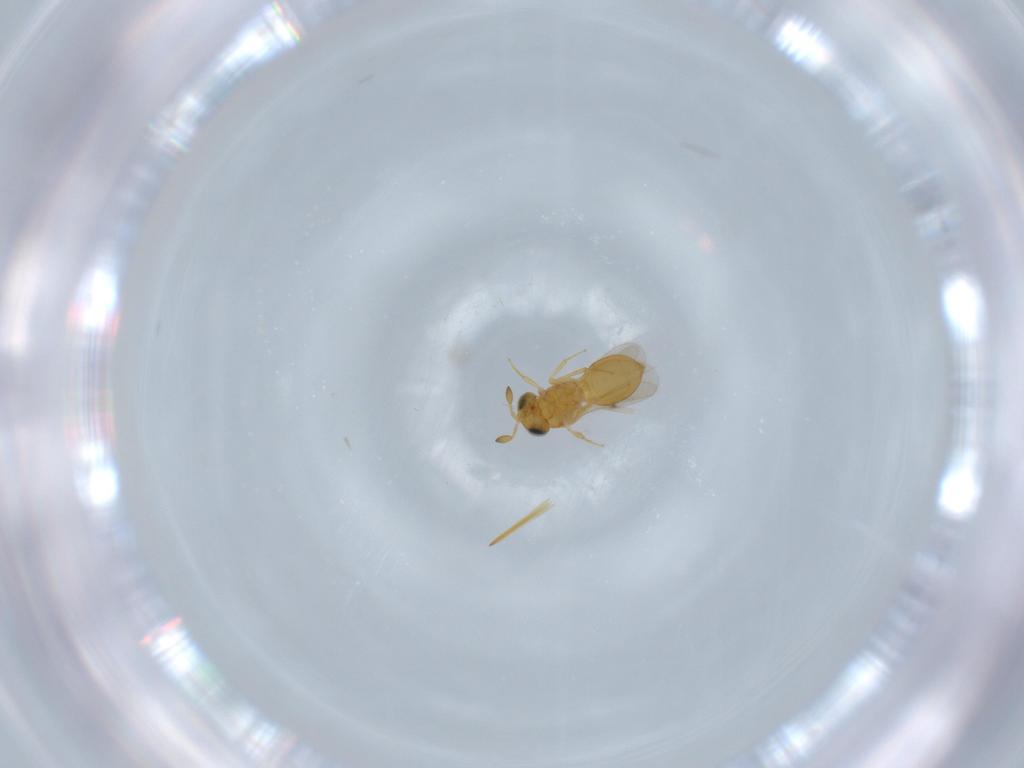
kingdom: Animalia
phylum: Arthropoda
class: Insecta
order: Hymenoptera
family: Scelionidae
